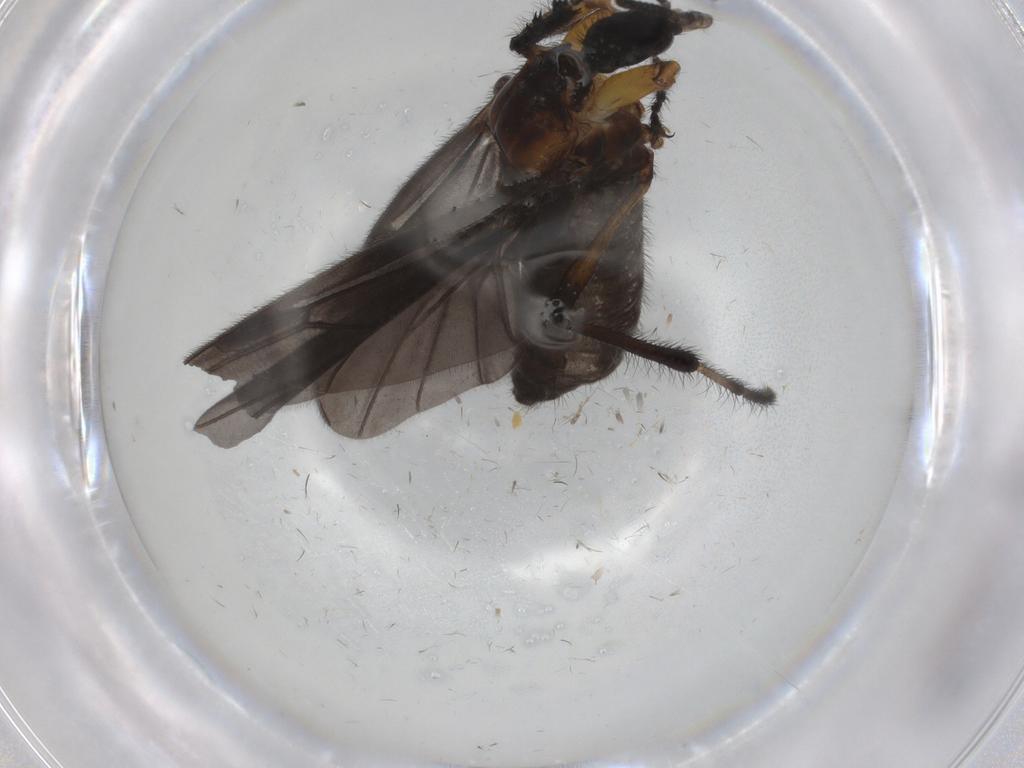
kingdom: Animalia
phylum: Arthropoda
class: Insecta
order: Diptera
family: Bibionidae
